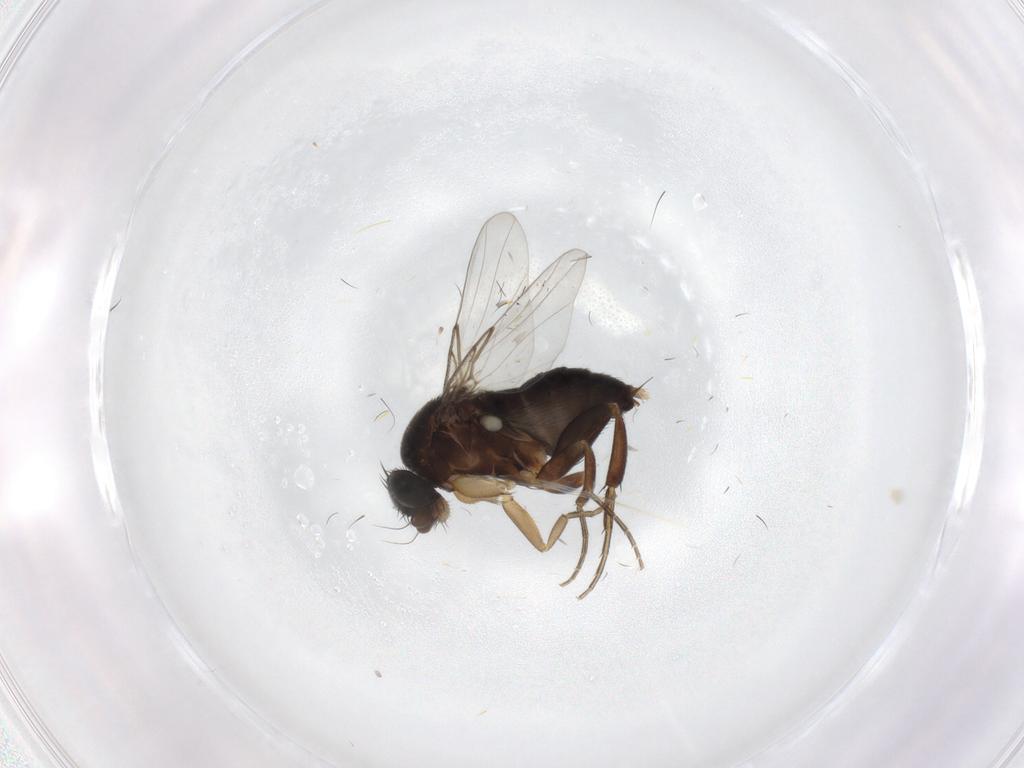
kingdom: Animalia
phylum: Arthropoda
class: Insecta
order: Diptera
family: Phoridae
